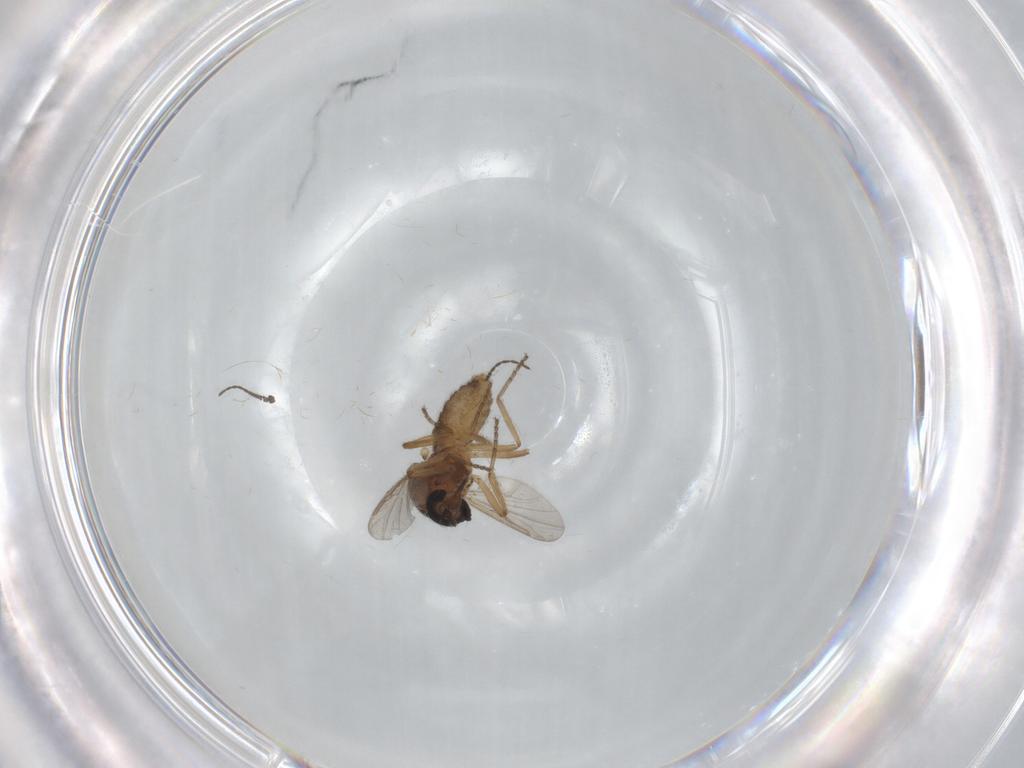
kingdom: Animalia
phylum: Arthropoda
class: Insecta
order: Diptera
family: Ceratopogonidae
